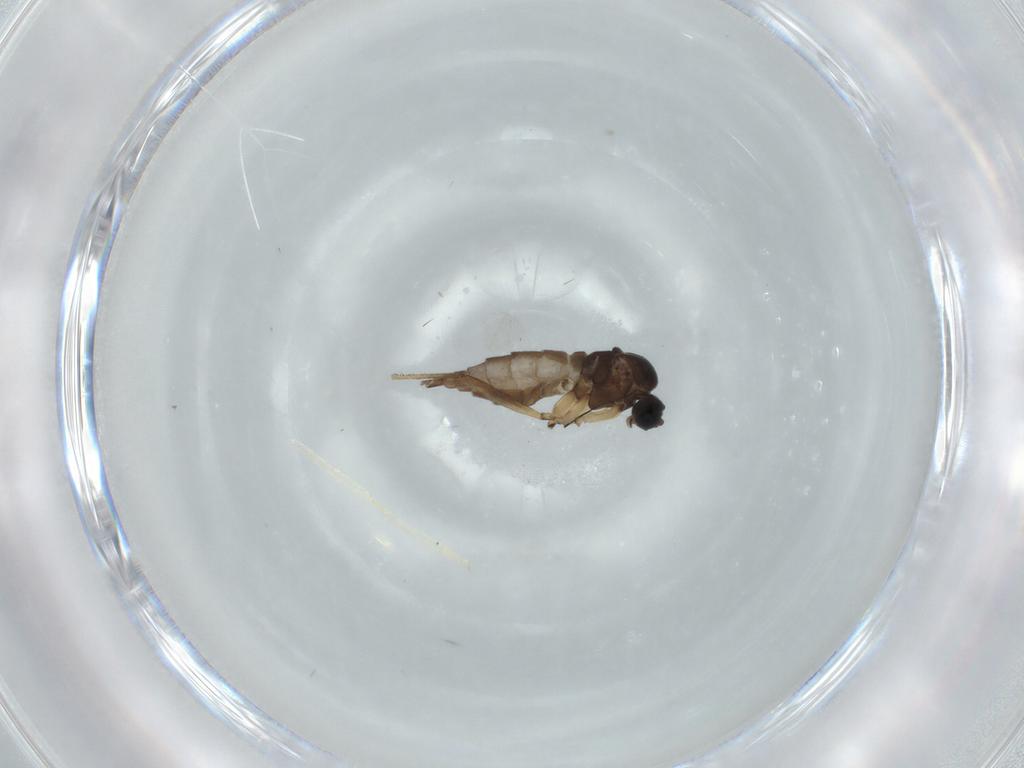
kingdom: Animalia
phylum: Arthropoda
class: Insecta
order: Diptera
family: Sciaridae
